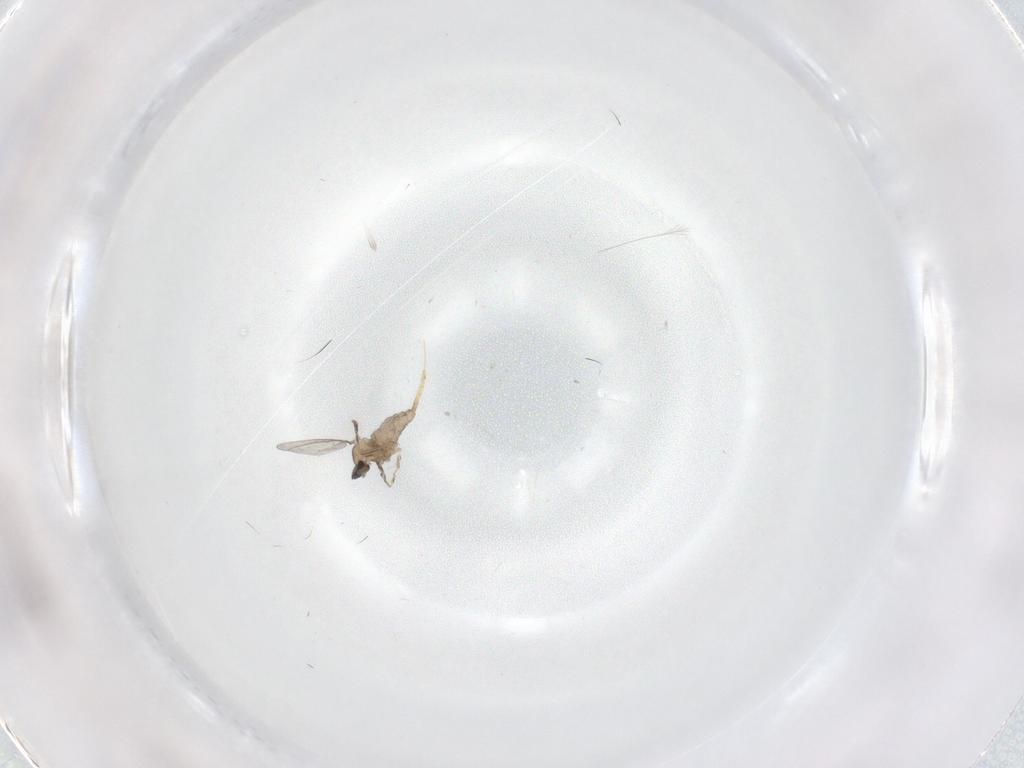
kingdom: Animalia
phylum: Arthropoda
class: Insecta
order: Diptera
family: Cecidomyiidae
